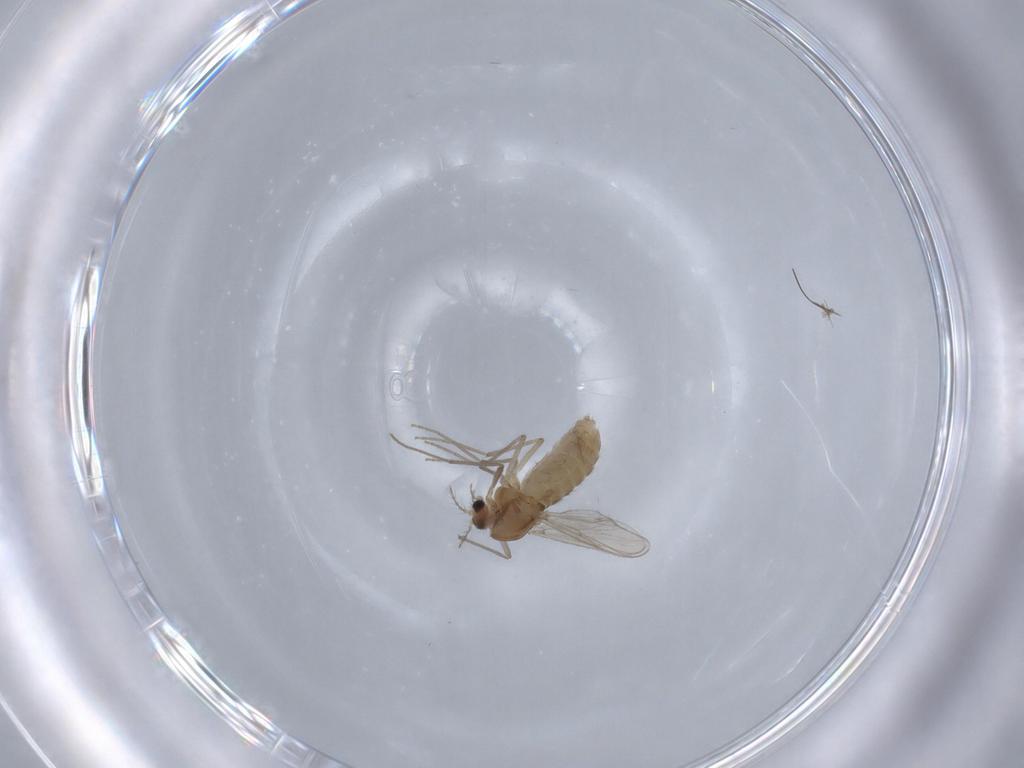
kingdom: Animalia
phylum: Arthropoda
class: Insecta
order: Diptera
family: Chironomidae
